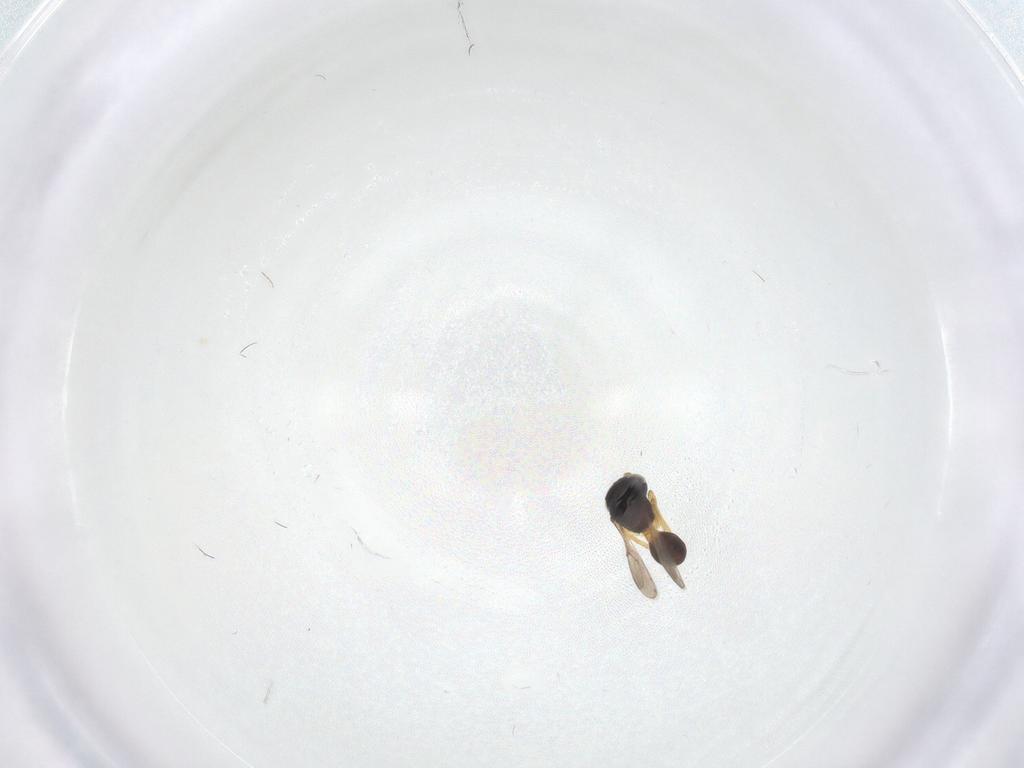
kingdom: Animalia
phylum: Arthropoda
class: Insecta
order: Hymenoptera
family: Scelionidae
